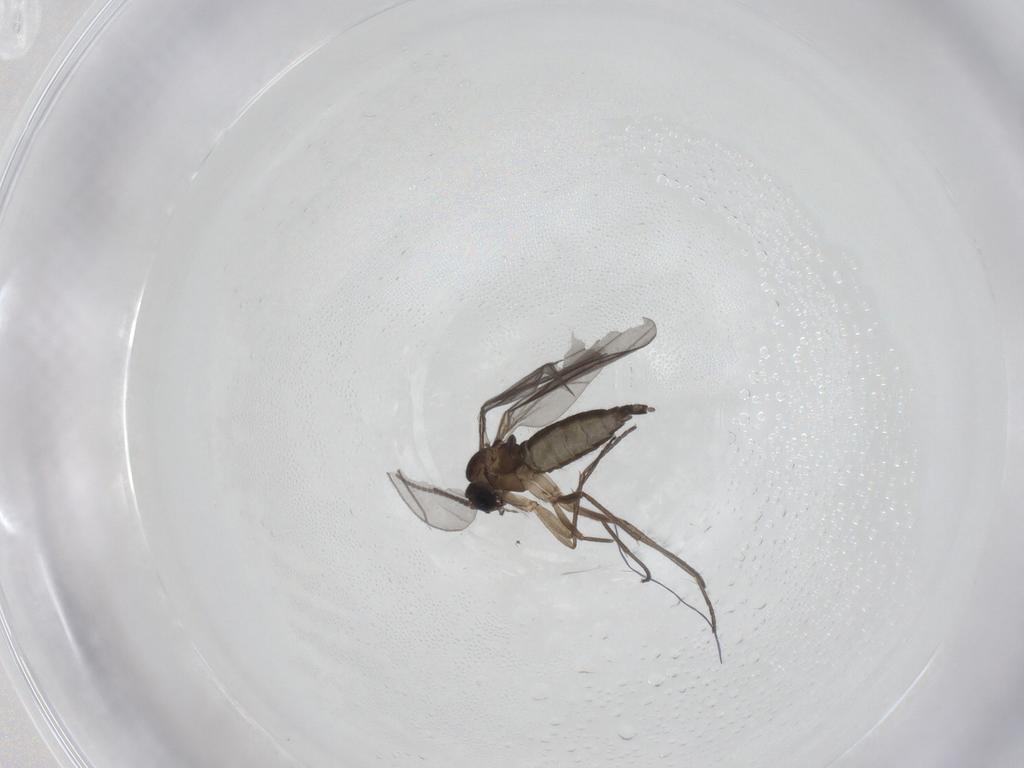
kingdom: Animalia
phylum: Arthropoda
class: Insecta
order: Diptera
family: Sciaridae
